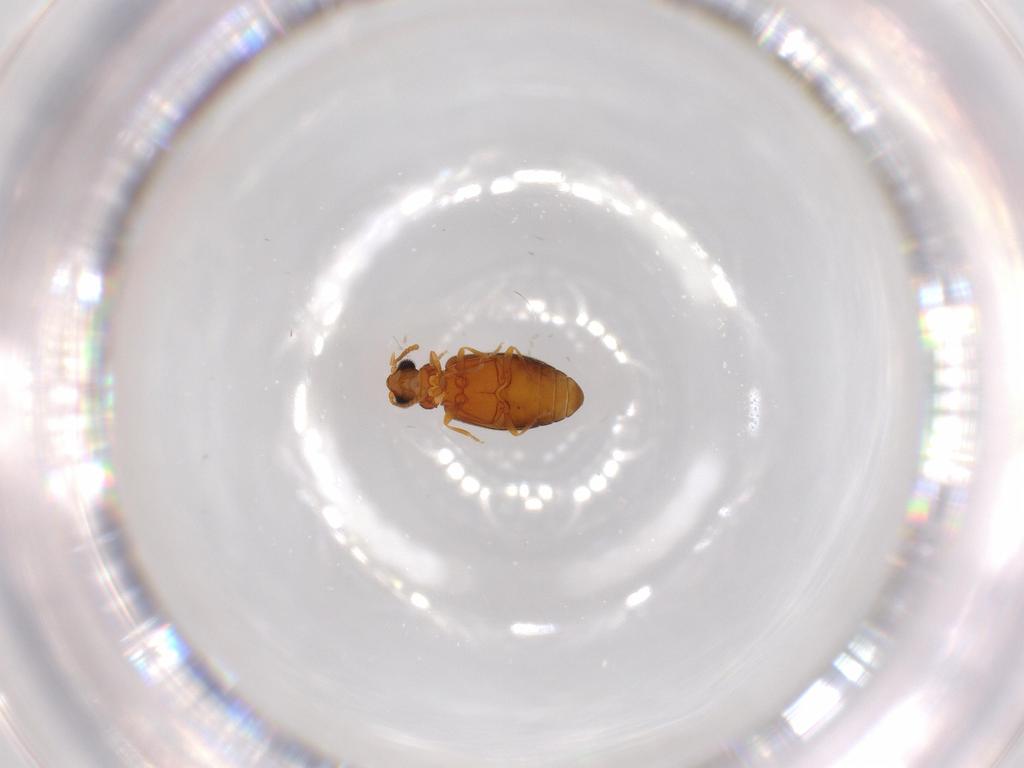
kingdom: Animalia
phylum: Arthropoda
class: Insecta
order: Coleoptera
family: Aderidae
